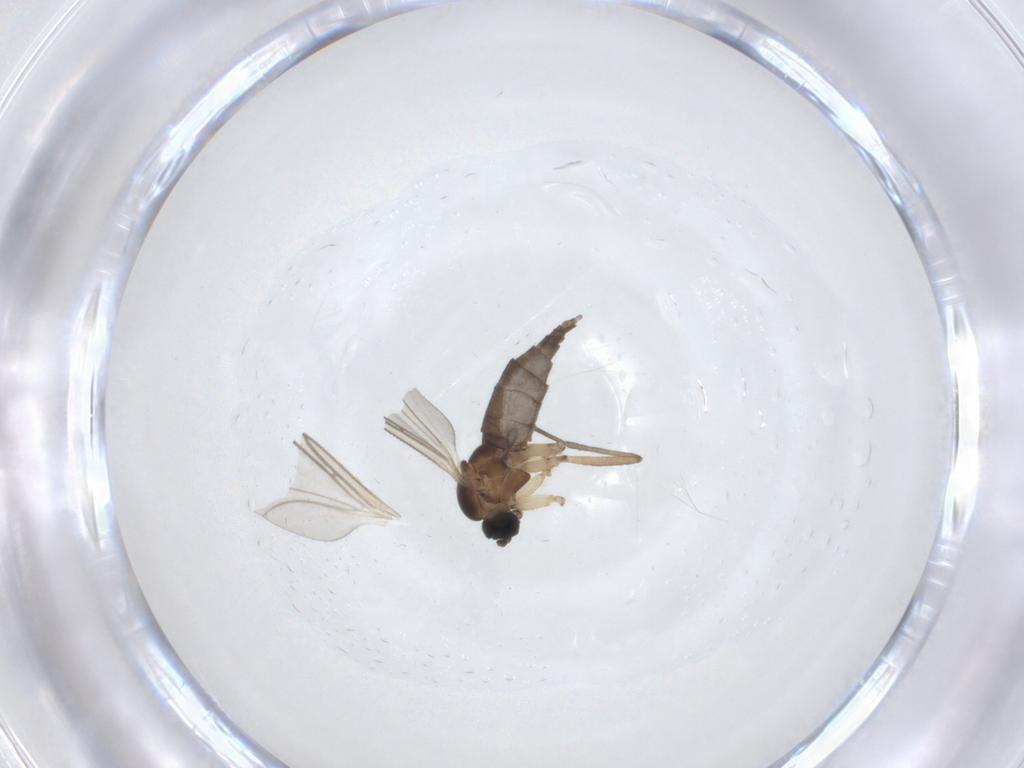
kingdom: Animalia
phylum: Arthropoda
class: Insecta
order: Diptera
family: Sciaridae
